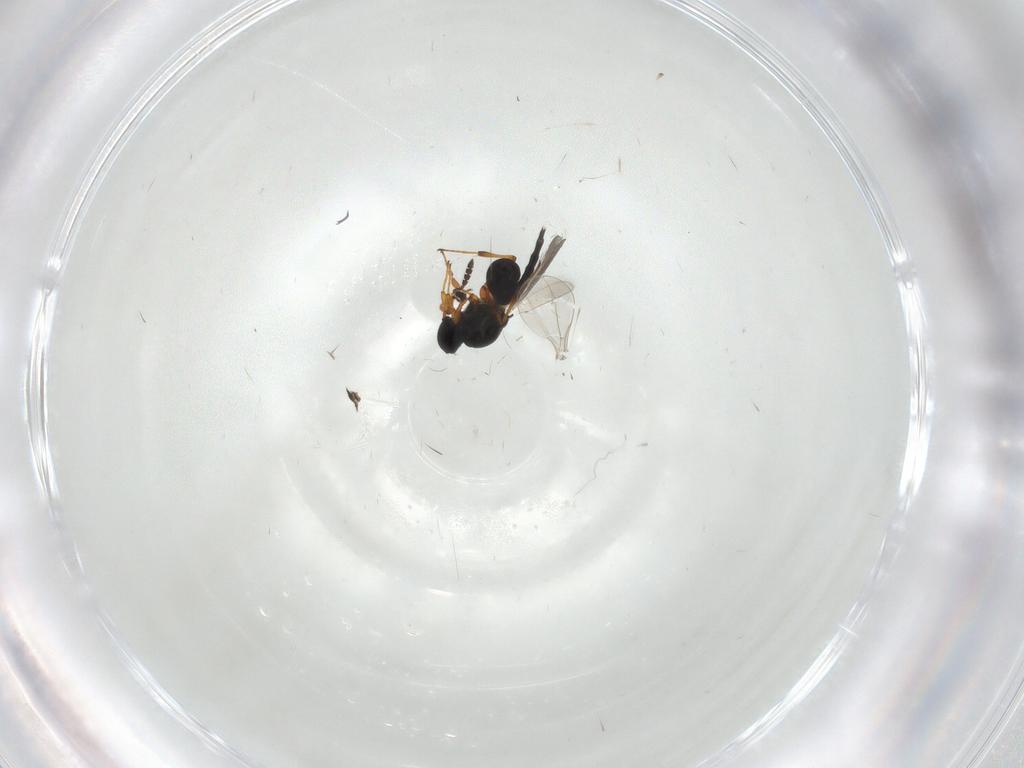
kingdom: Animalia
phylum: Arthropoda
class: Insecta
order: Hymenoptera
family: Platygastridae
